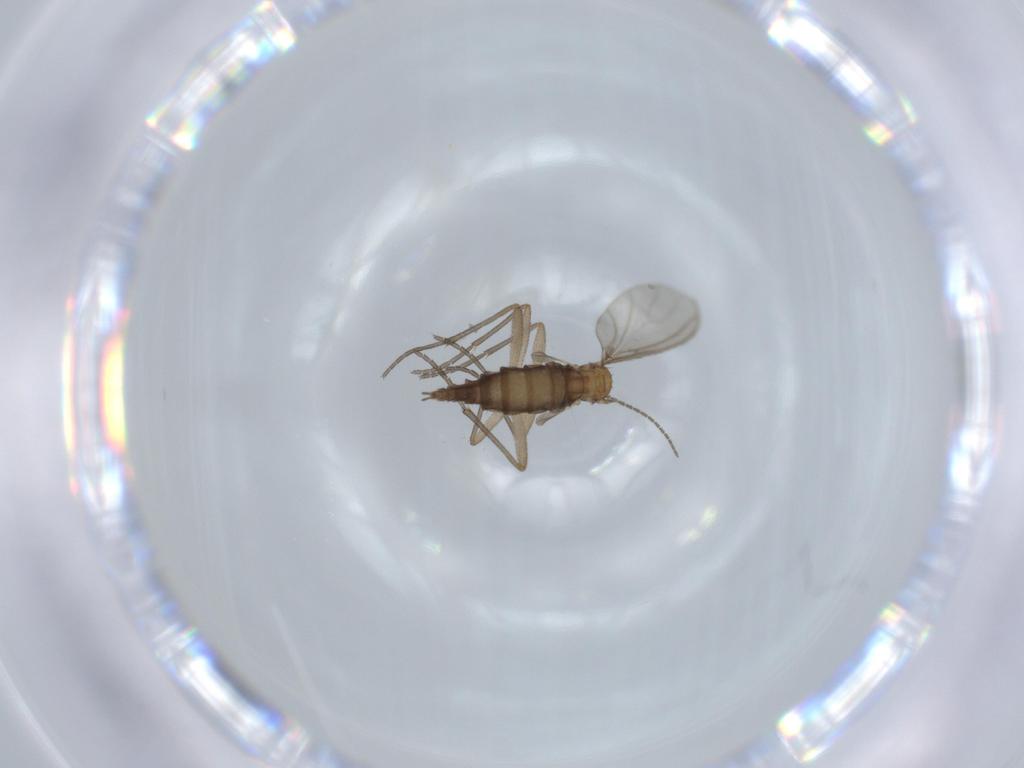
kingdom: Animalia
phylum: Arthropoda
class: Insecta
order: Diptera
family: Sciaridae
